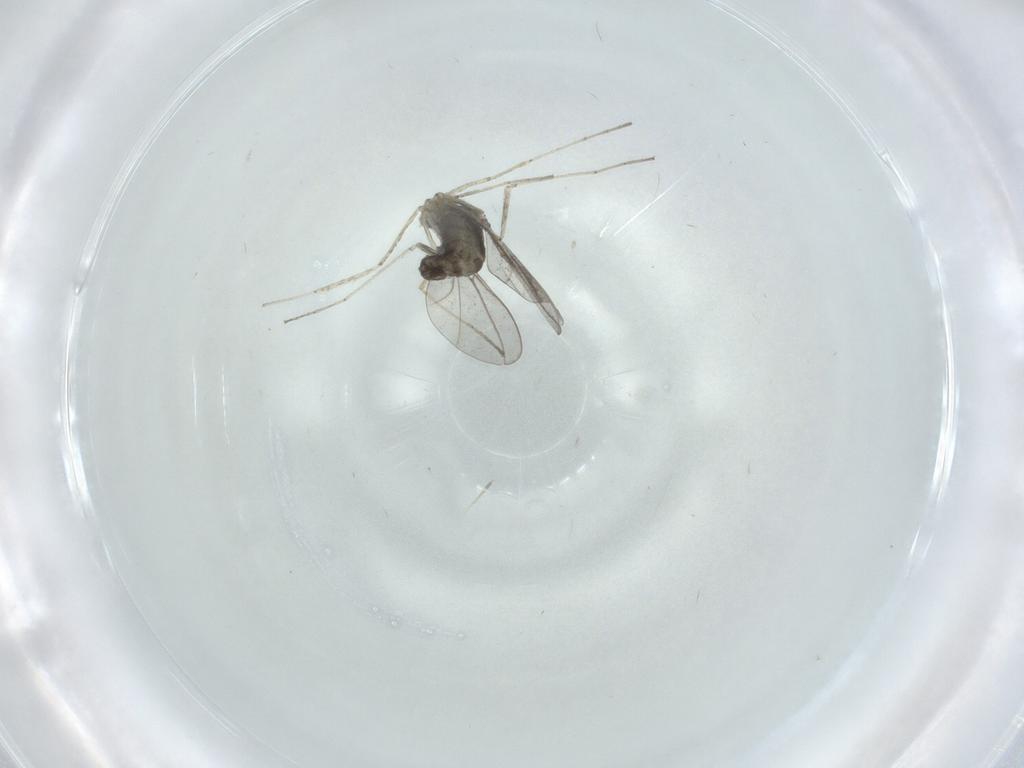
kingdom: Animalia
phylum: Arthropoda
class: Insecta
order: Diptera
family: Cecidomyiidae
